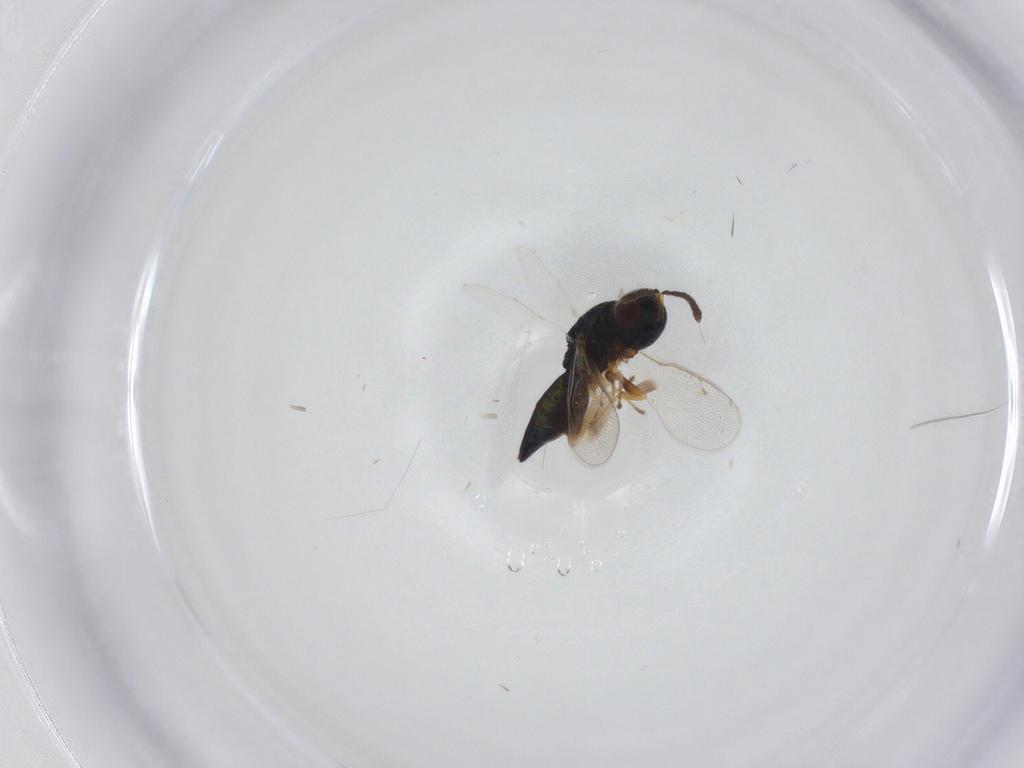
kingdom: Animalia
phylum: Arthropoda
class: Insecta
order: Hymenoptera
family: Pteromalidae
